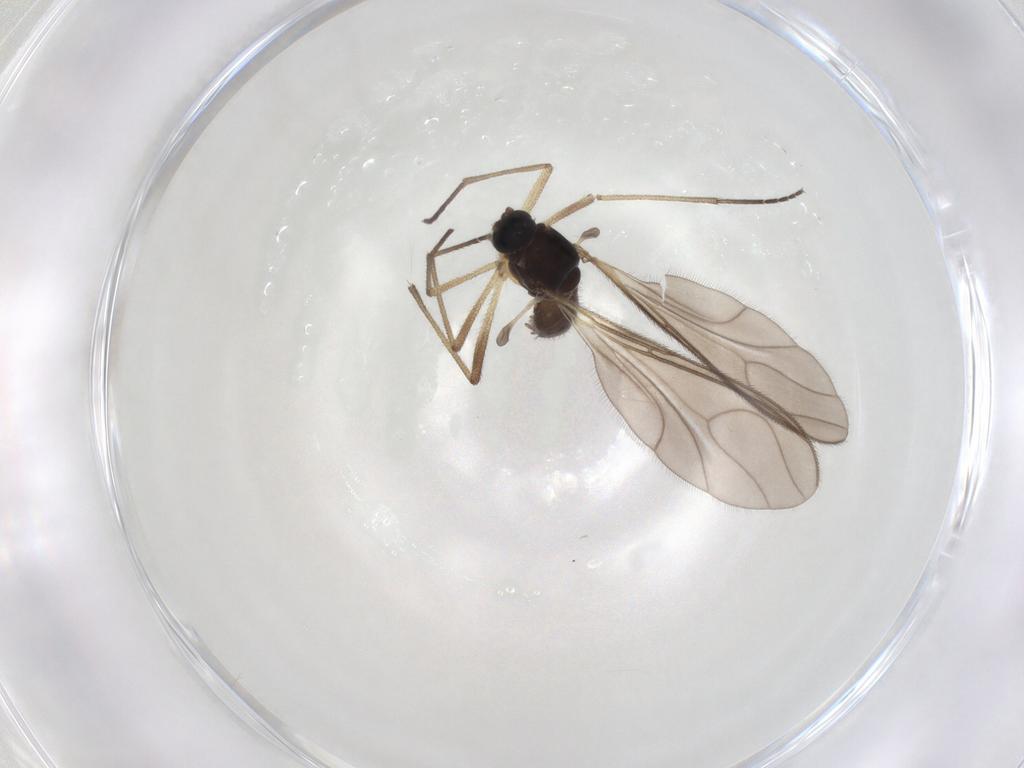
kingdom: Animalia
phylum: Arthropoda
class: Insecta
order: Diptera
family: Sciaridae
